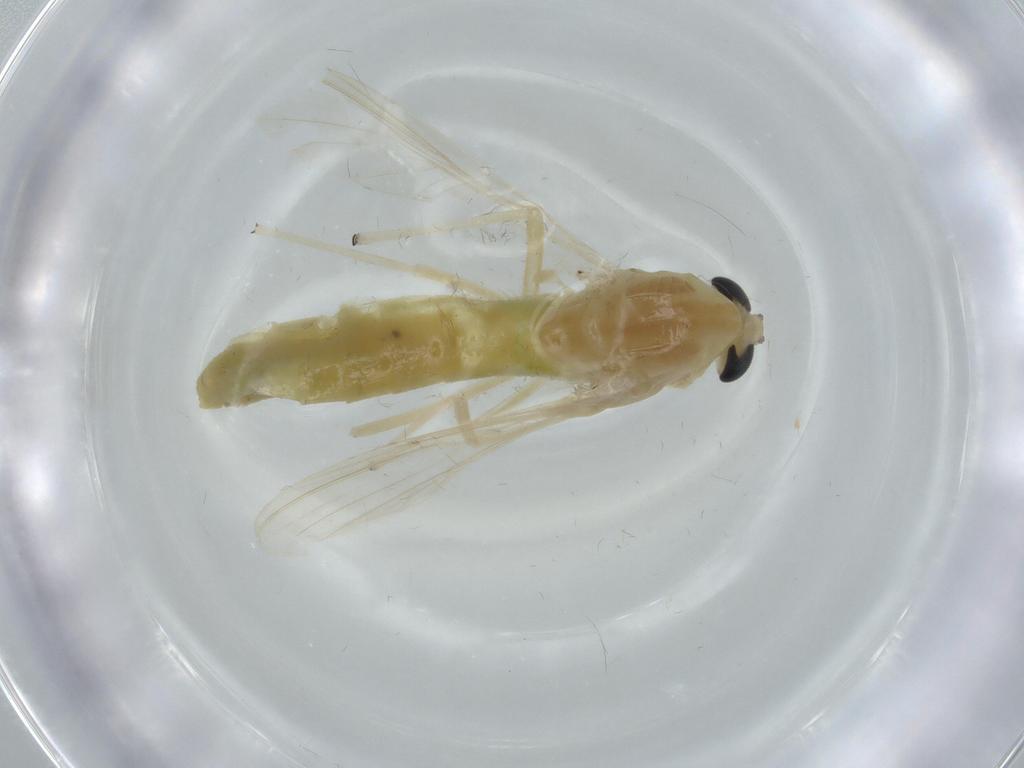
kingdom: Animalia
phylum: Arthropoda
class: Insecta
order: Diptera
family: Chironomidae
